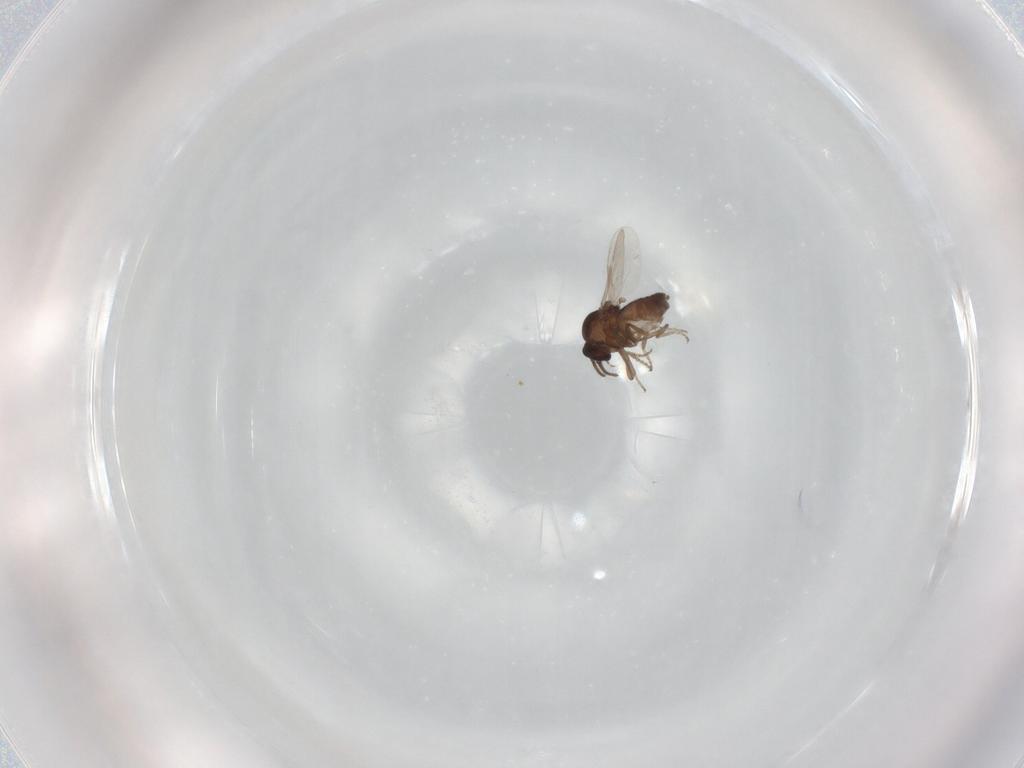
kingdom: Animalia
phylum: Arthropoda
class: Insecta
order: Diptera
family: Ceratopogonidae
